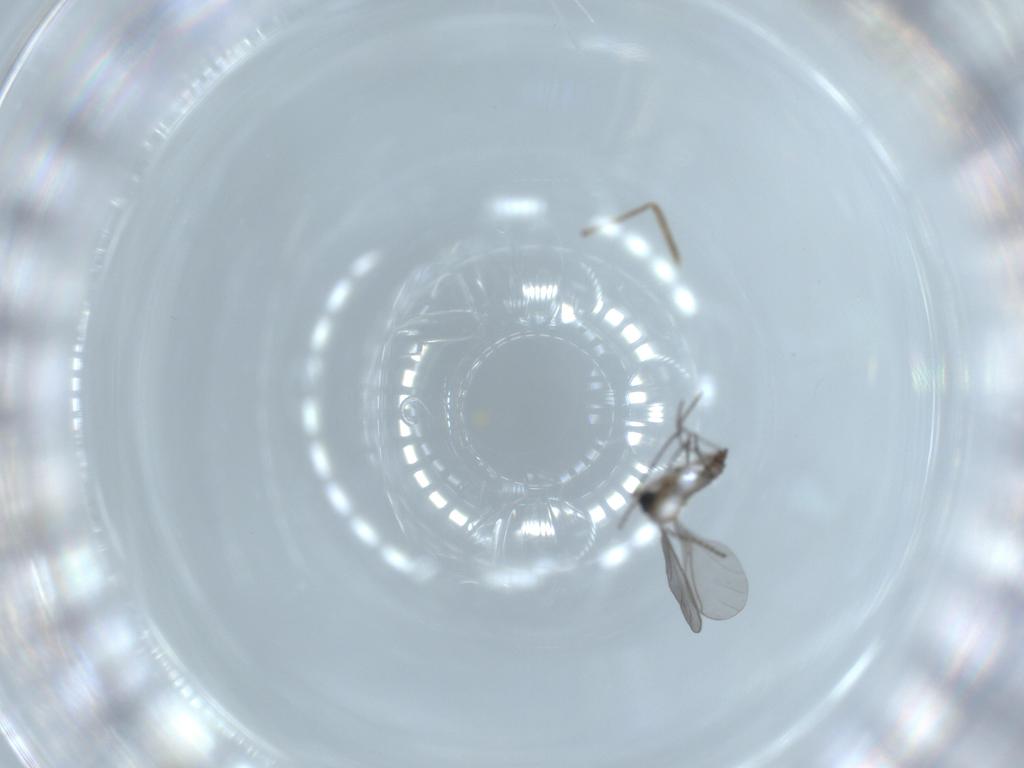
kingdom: Animalia
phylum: Arthropoda
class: Insecta
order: Diptera
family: Sciaridae
